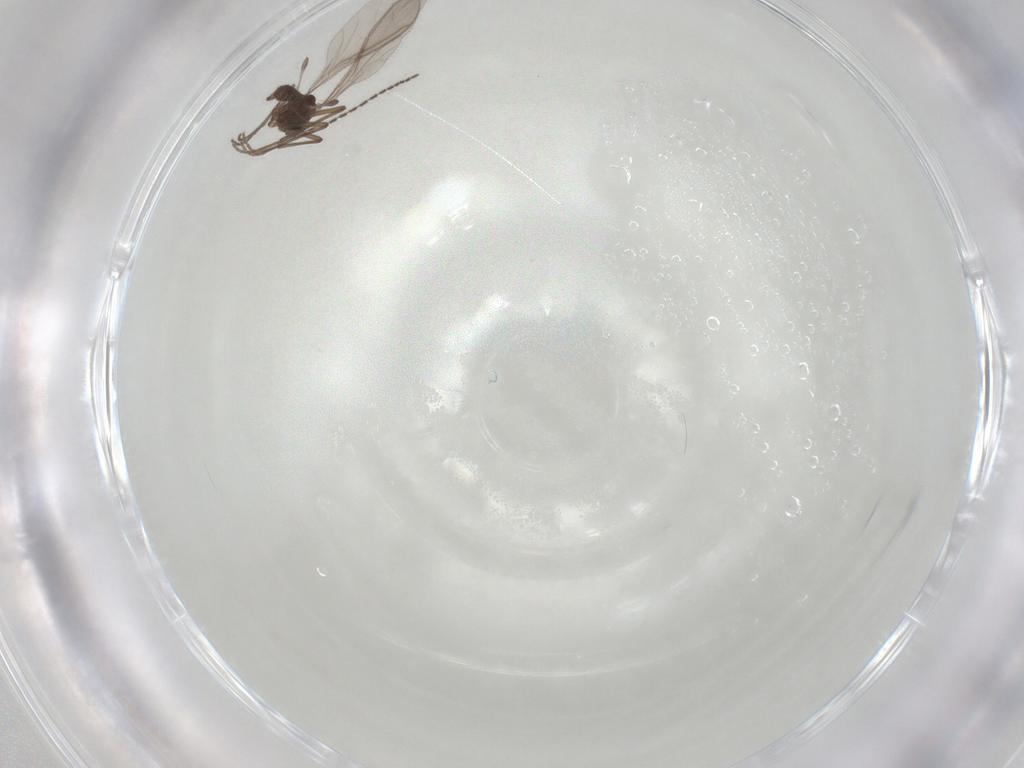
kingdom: Animalia
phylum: Arthropoda
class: Insecta
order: Diptera
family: Sciaridae
